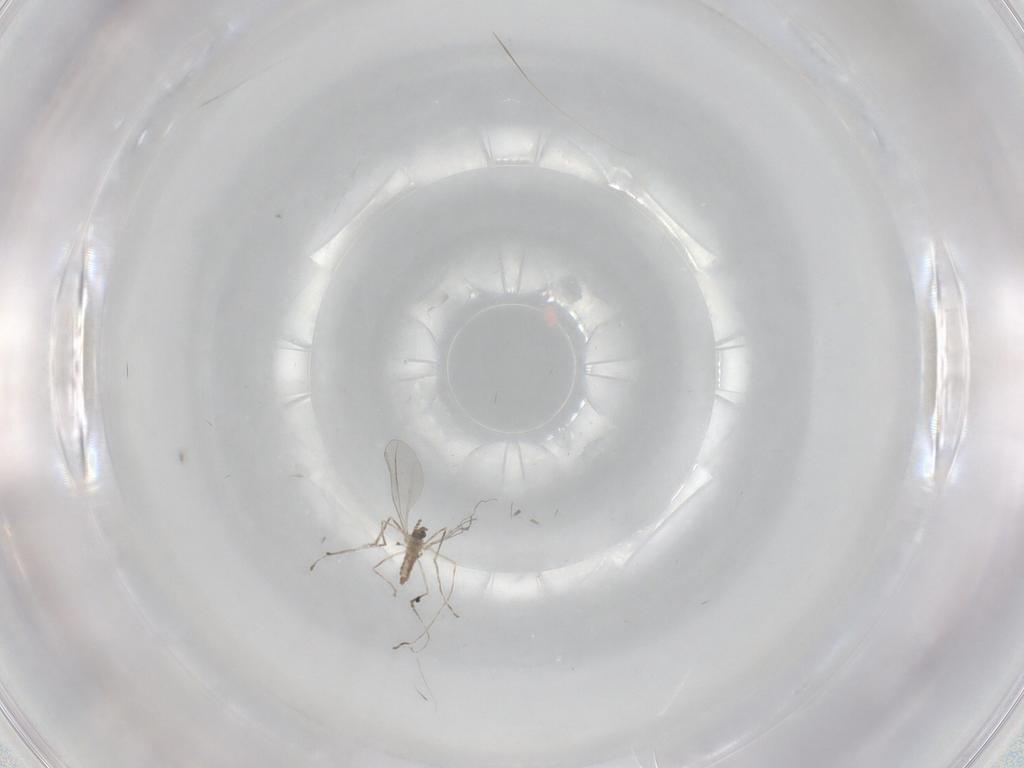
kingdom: Animalia
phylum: Arthropoda
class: Insecta
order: Diptera
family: Sciaridae
